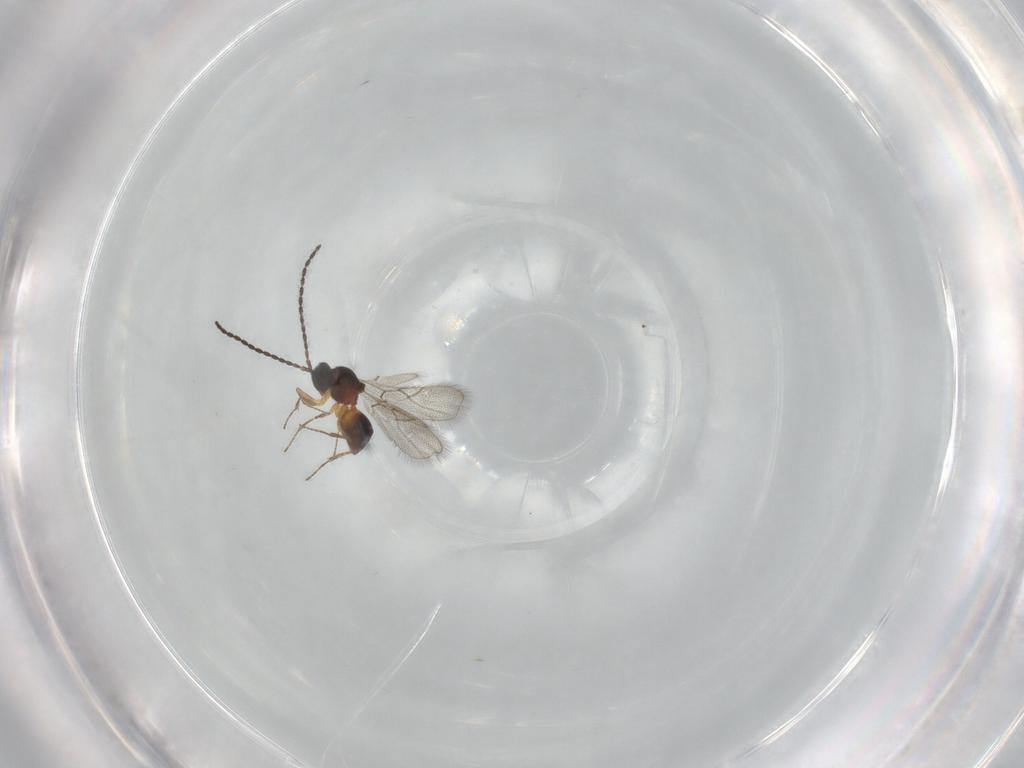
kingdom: Animalia
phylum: Arthropoda
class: Insecta
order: Hymenoptera
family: Figitidae
